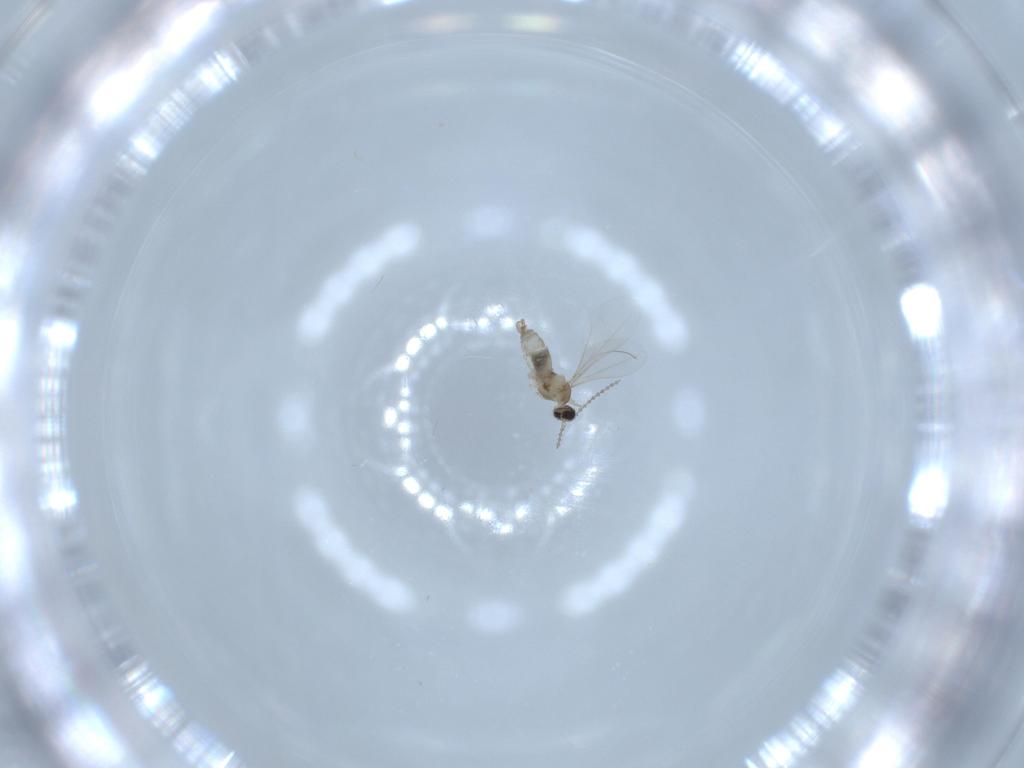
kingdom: Animalia
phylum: Arthropoda
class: Insecta
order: Diptera
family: Cecidomyiidae
